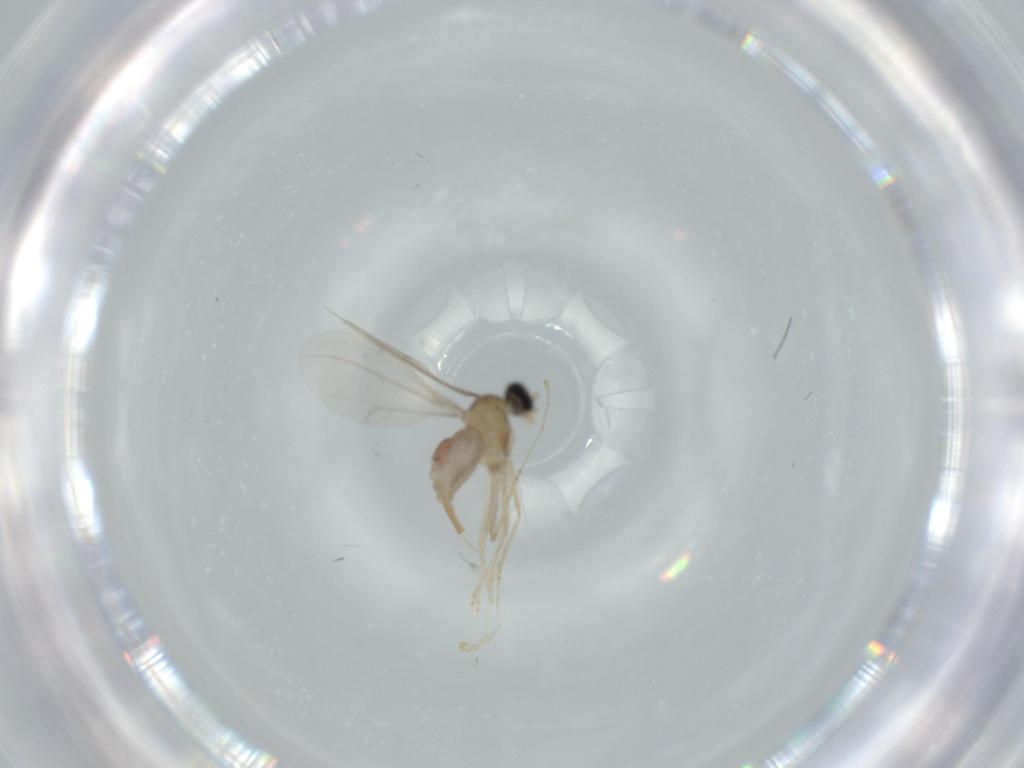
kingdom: Animalia
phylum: Arthropoda
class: Insecta
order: Diptera
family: Cecidomyiidae
